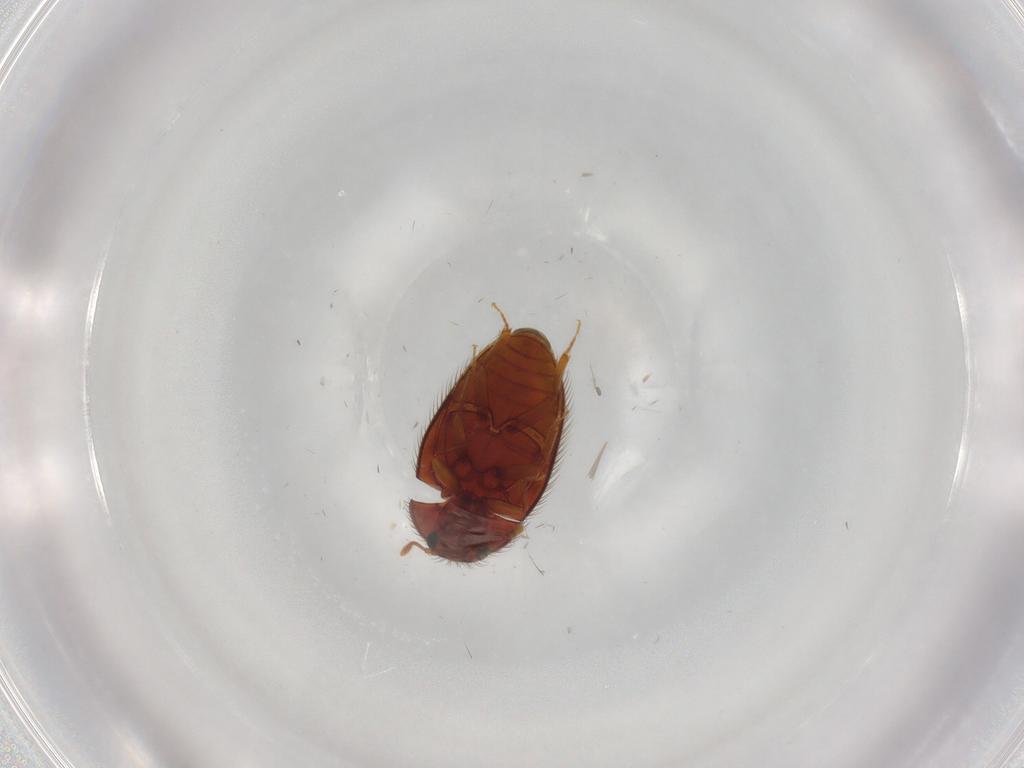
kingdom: Animalia
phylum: Arthropoda
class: Insecta
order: Coleoptera
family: Biphyllidae
